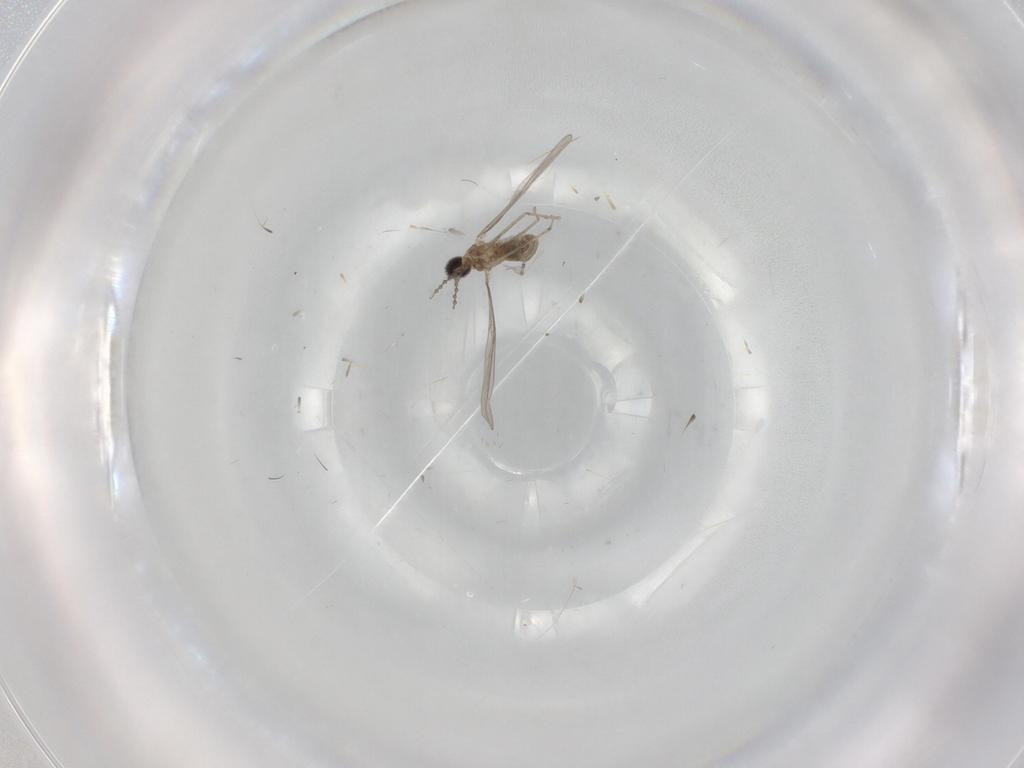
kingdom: Animalia
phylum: Arthropoda
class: Insecta
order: Diptera
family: Cecidomyiidae
